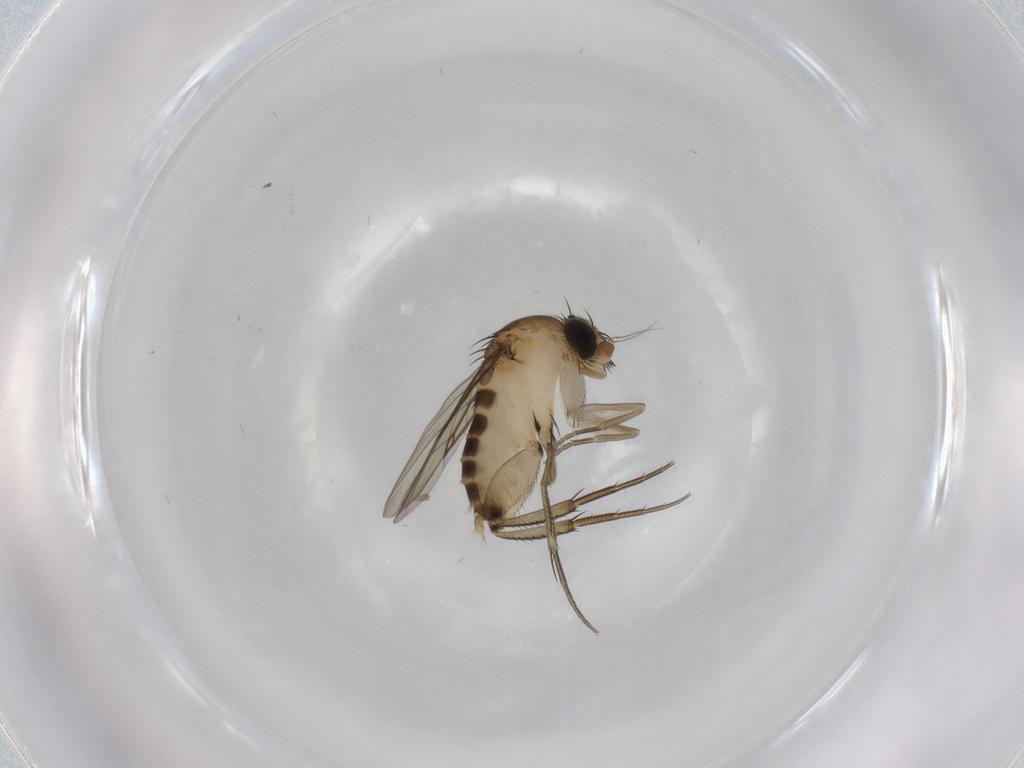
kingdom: Animalia
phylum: Arthropoda
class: Insecta
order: Diptera
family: Phoridae
